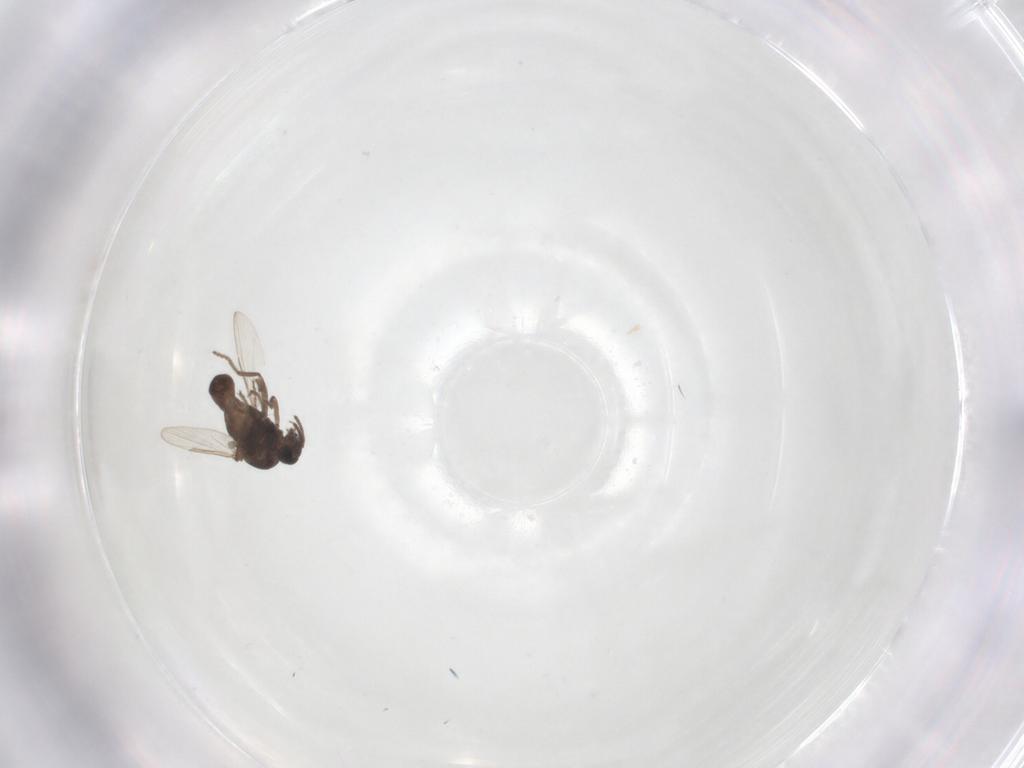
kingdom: Animalia
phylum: Arthropoda
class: Insecta
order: Diptera
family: Ceratopogonidae
